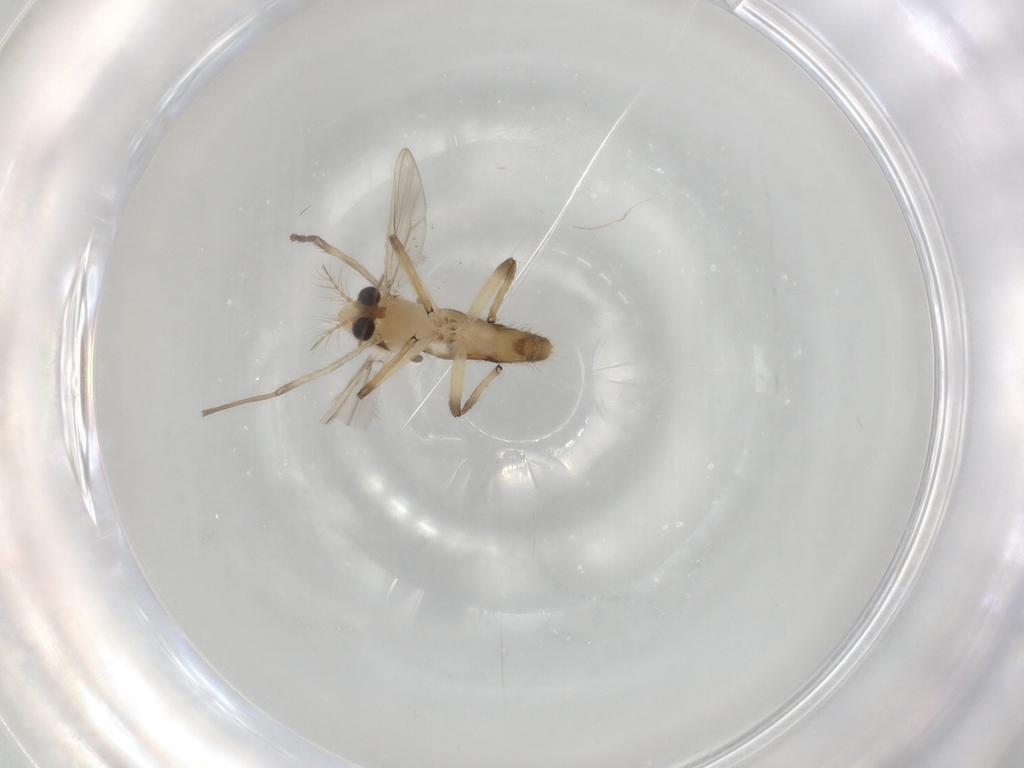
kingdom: Animalia
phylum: Arthropoda
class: Insecta
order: Diptera
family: Chironomidae
